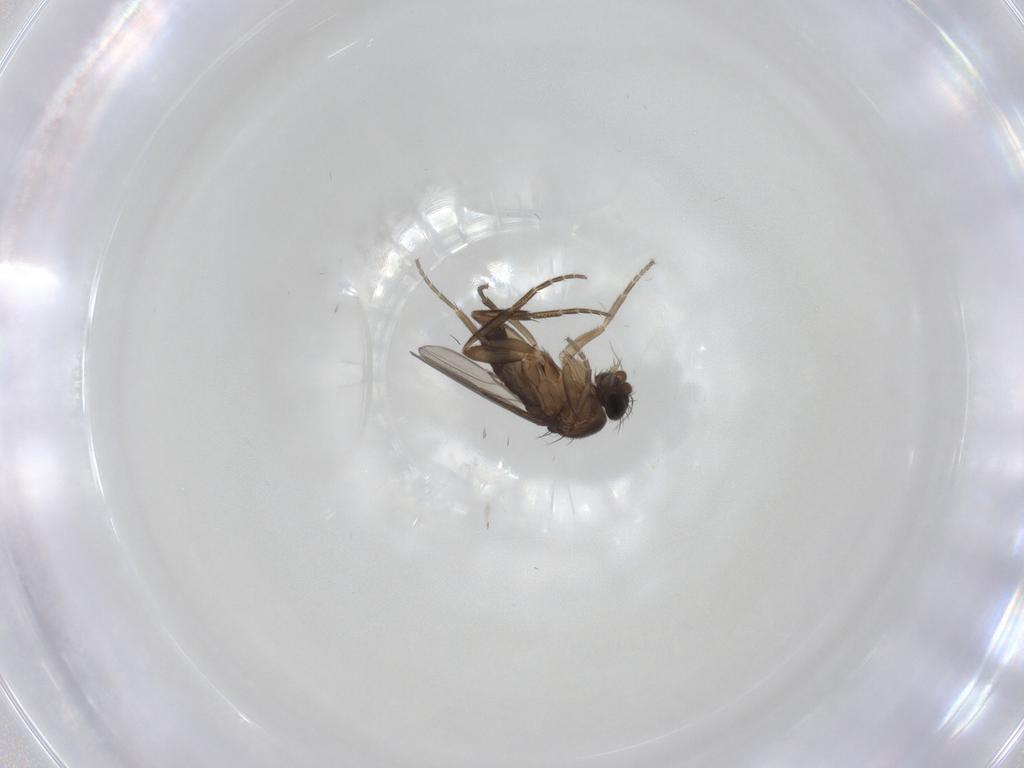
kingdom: Animalia
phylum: Arthropoda
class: Insecta
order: Diptera
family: Phoridae
